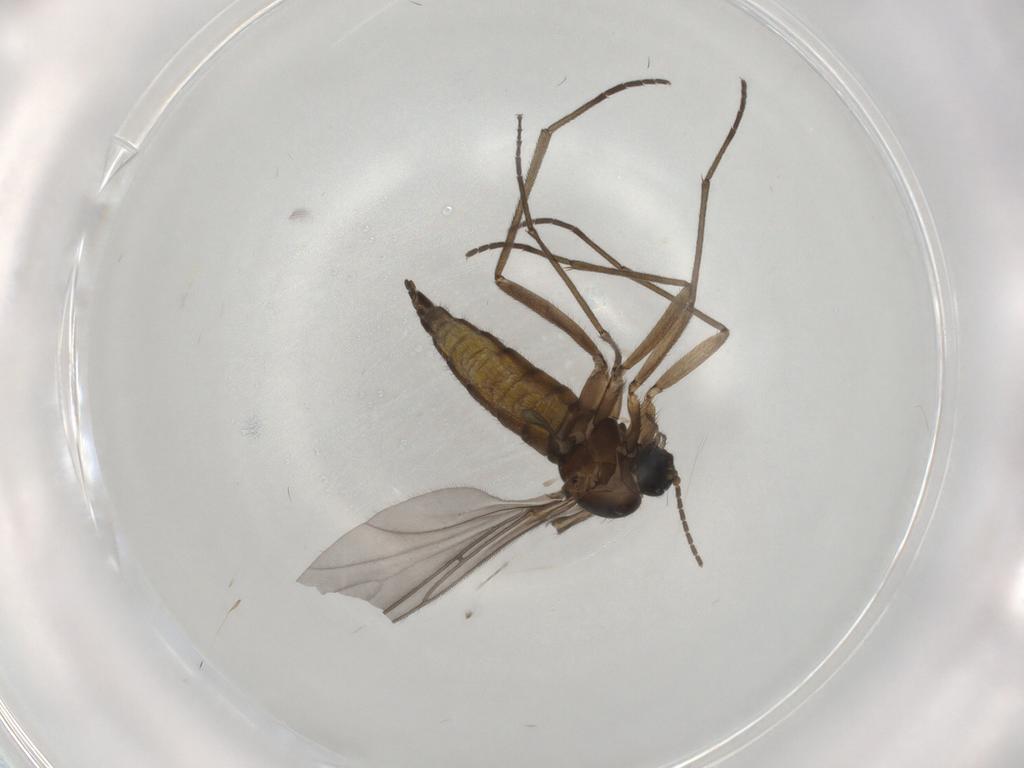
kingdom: Animalia
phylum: Arthropoda
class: Insecta
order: Diptera
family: Sciaridae
